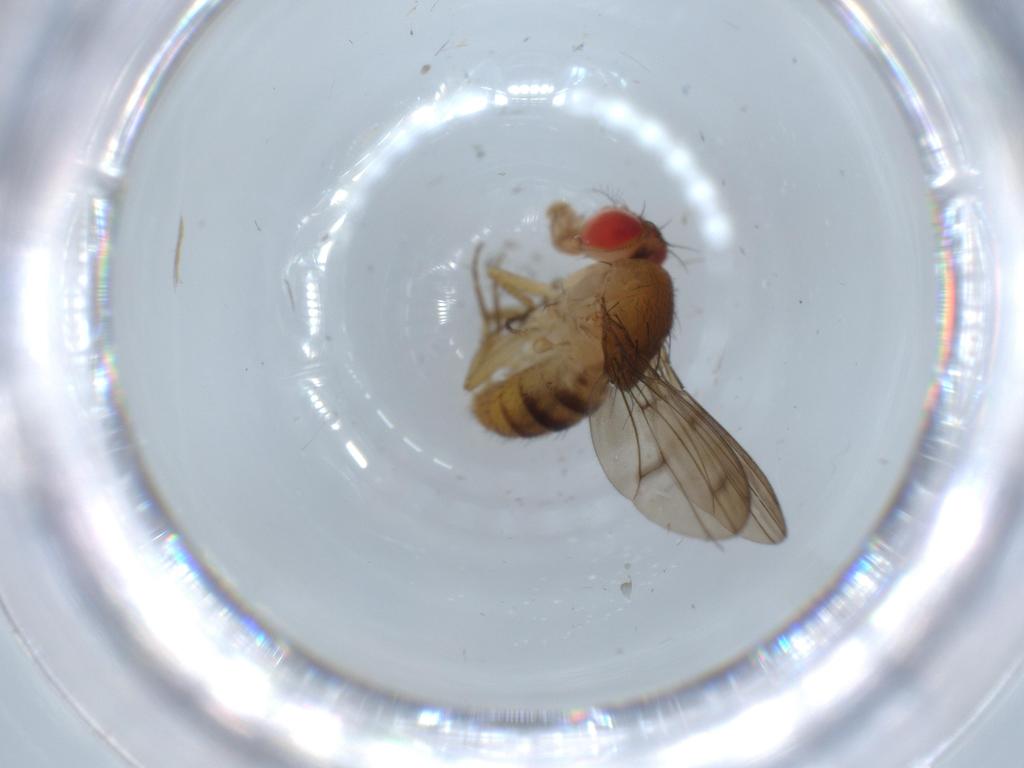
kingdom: Animalia
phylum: Arthropoda
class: Insecta
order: Diptera
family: Drosophilidae
